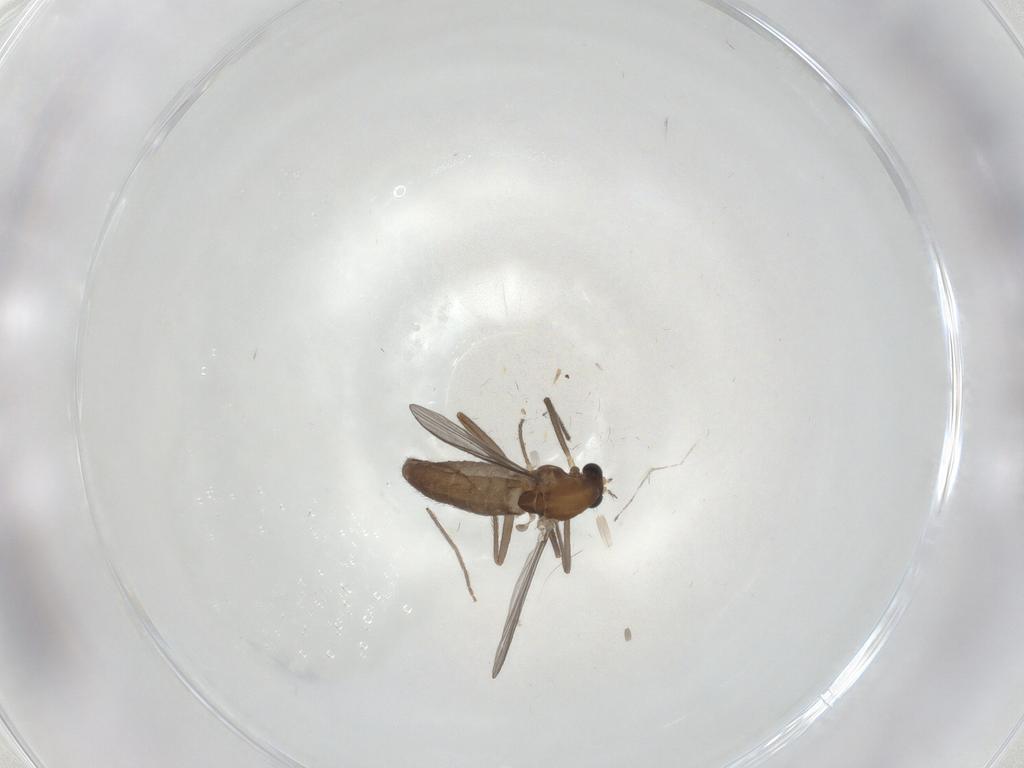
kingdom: Animalia
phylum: Arthropoda
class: Insecta
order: Diptera
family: Chironomidae
